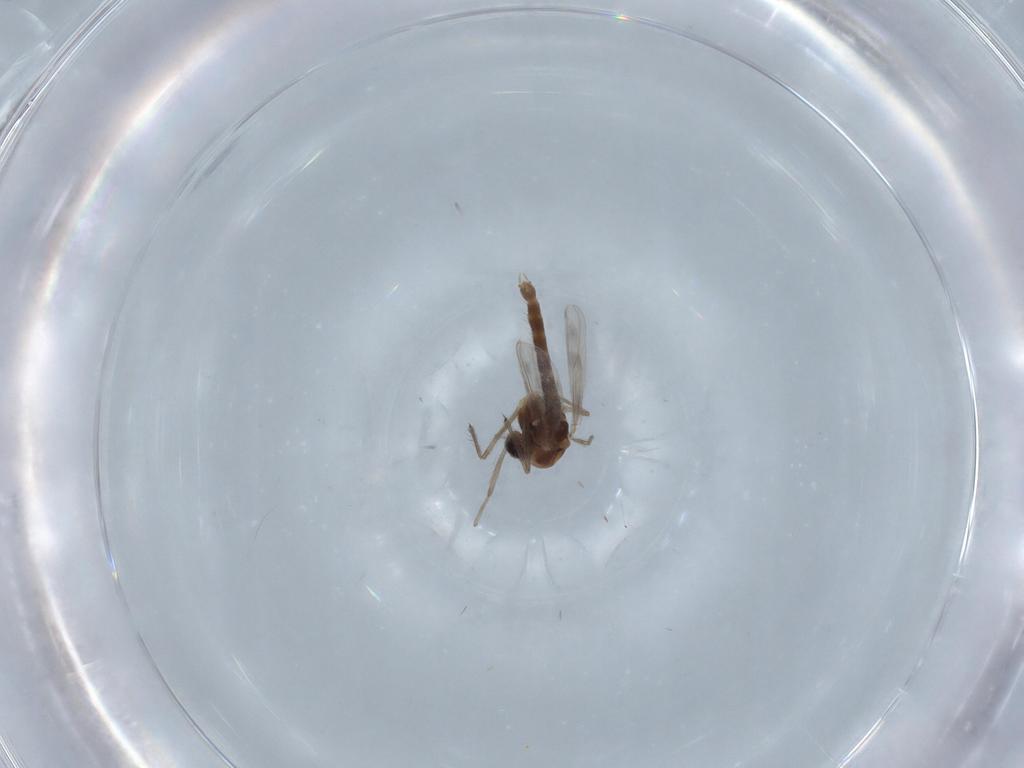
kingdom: Animalia
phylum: Arthropoda
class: Insecta
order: Diptera
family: Chironomidae
